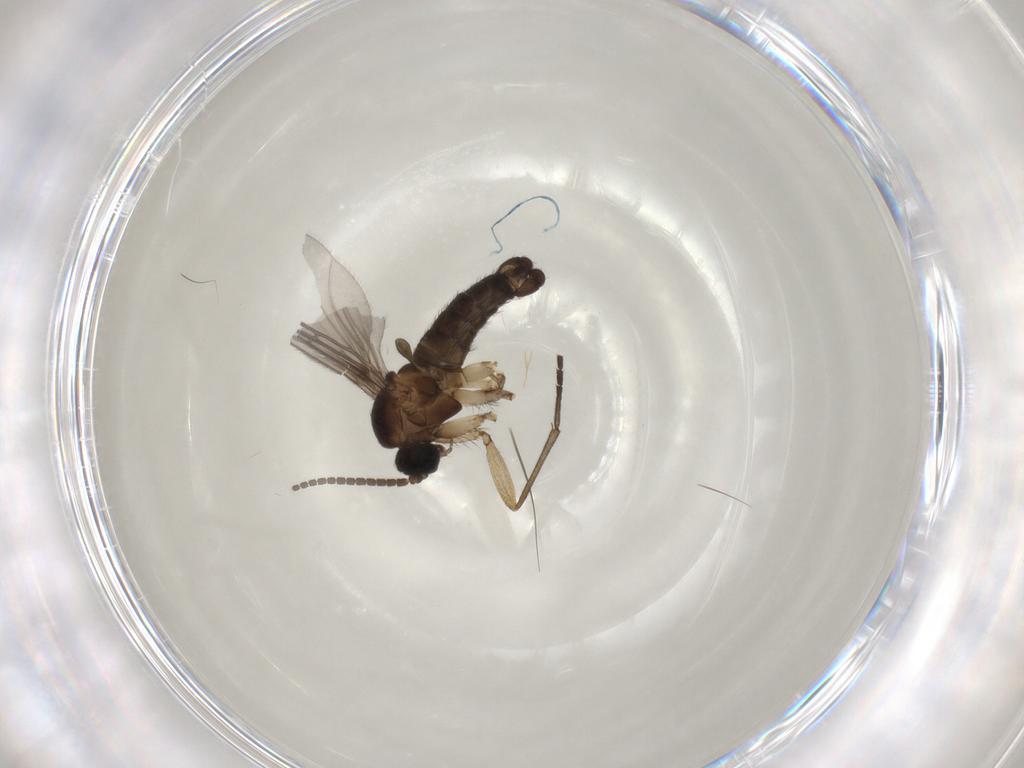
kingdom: Animalia
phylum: Arthropoda
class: Insecta
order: Diptera
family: Sciaridae
